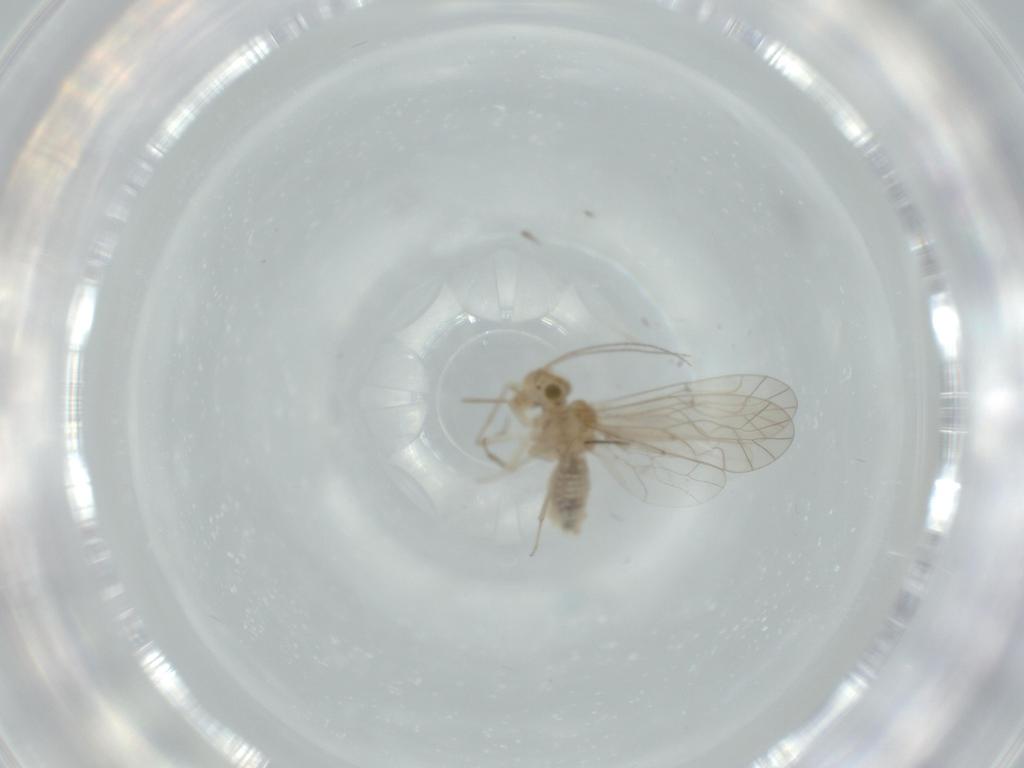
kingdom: Animalia
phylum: Arthropoda
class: Insecta
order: Psocodea
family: Lachesillidae
